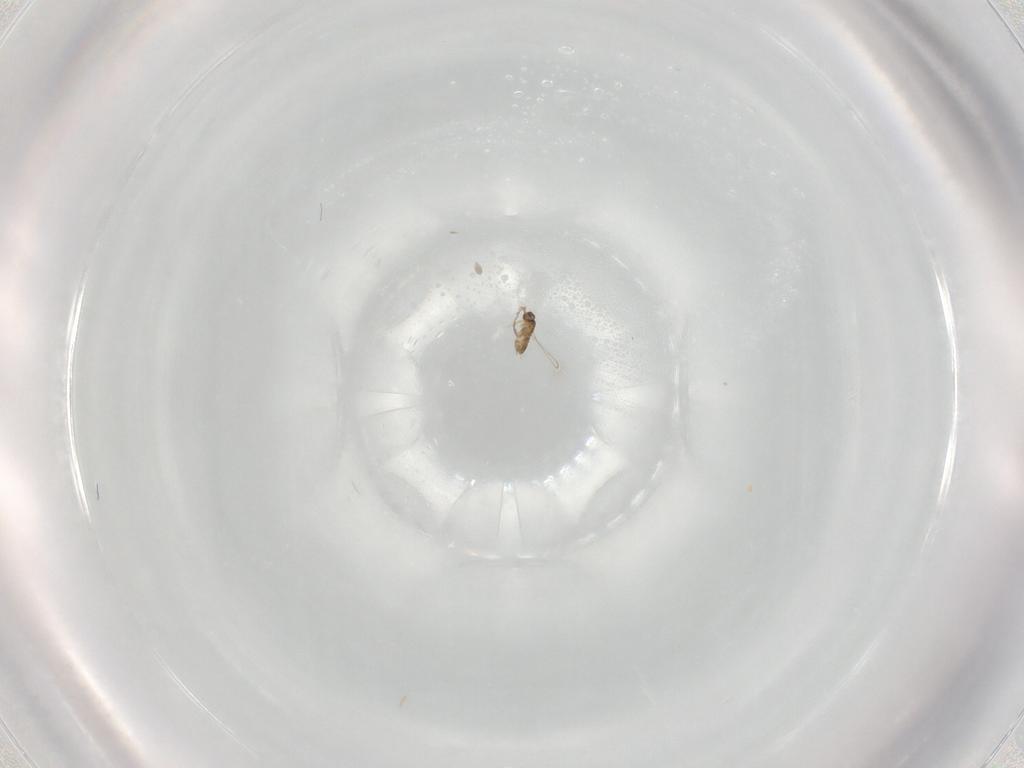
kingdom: Animalia
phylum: Arthropoda
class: Insecta
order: Hymenoptera
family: Mymaridae
